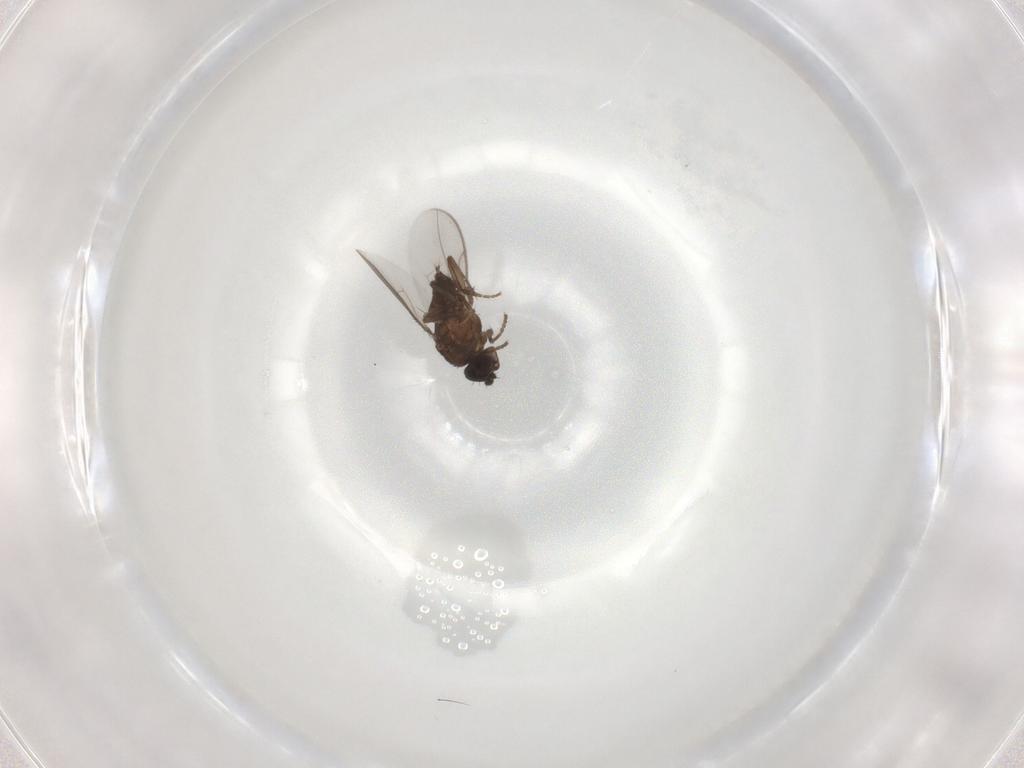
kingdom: Animalia
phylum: Arthropoda
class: Insecta
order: Diptera
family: Sphaeroceridae
